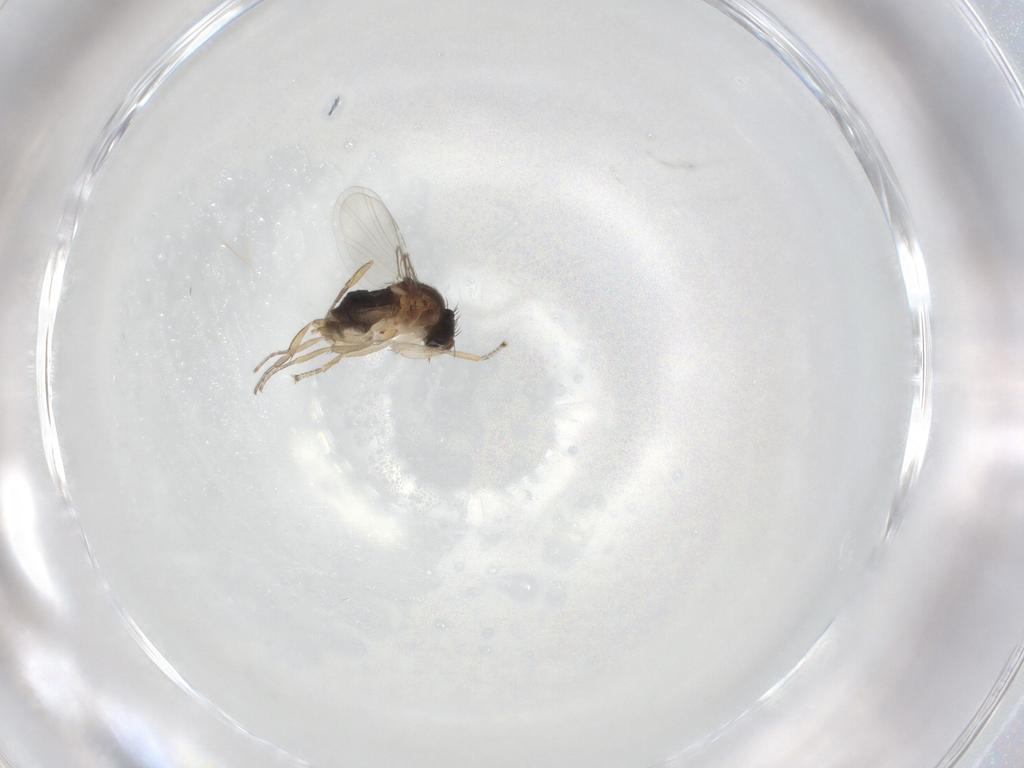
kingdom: Animalia
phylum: Arthropoda
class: Insecta
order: Diptera
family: Phoridae
